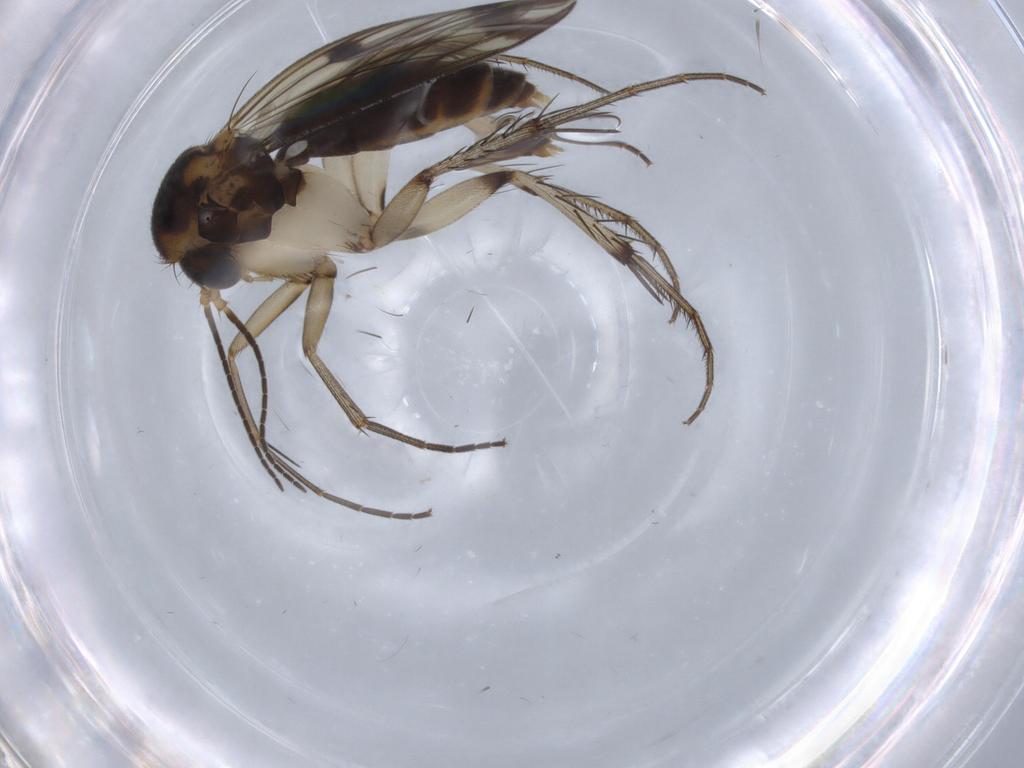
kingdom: Animalia
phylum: Arthropoda
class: Insecta
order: Diptera
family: Mycetophilidae
